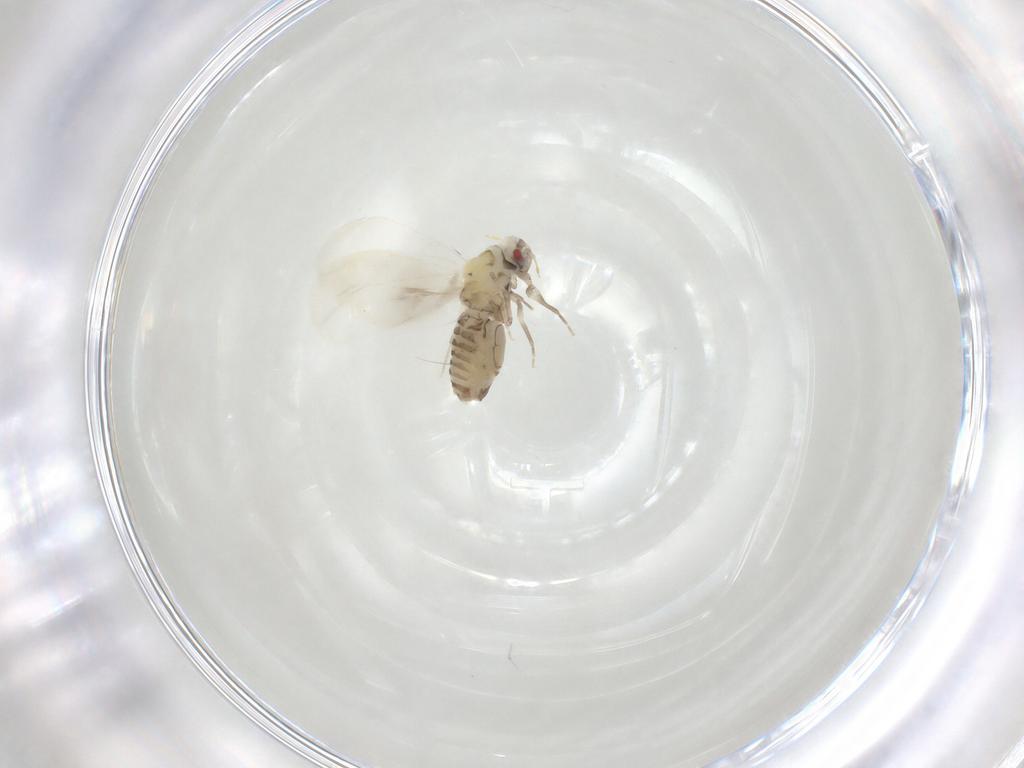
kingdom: Animalia
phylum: Arthropoda
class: Insecta
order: Hemiptera
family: Aleyrodidae
